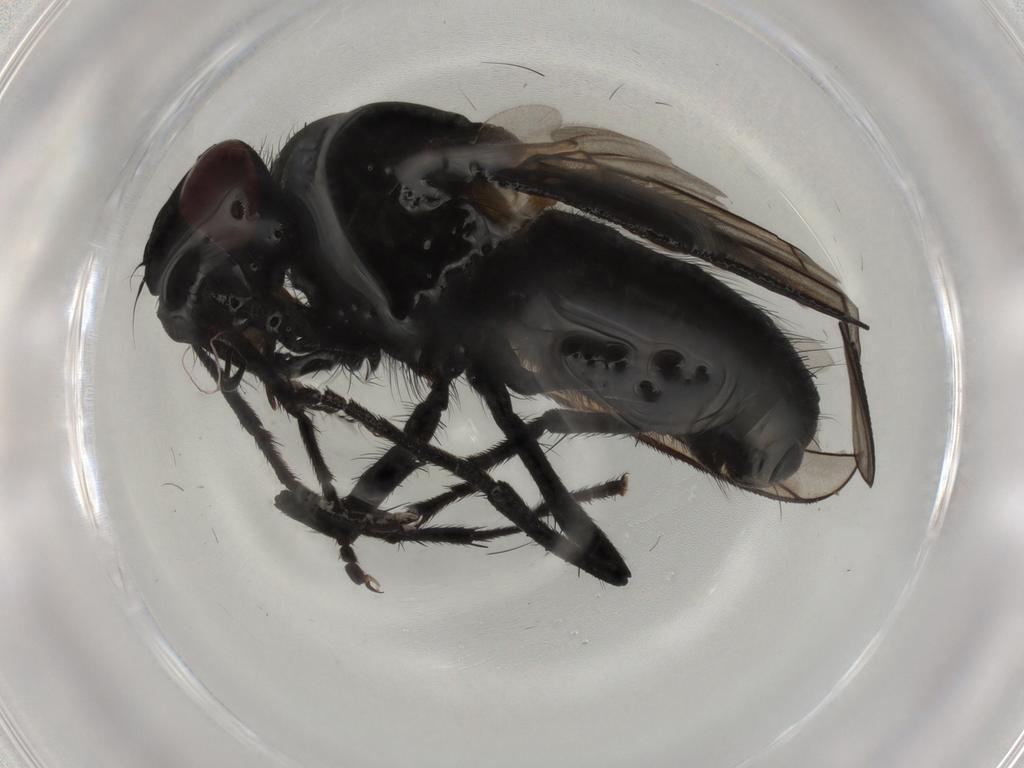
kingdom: Animalia
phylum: Arthropoda
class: Insecta
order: Diptera
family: Muscidae
